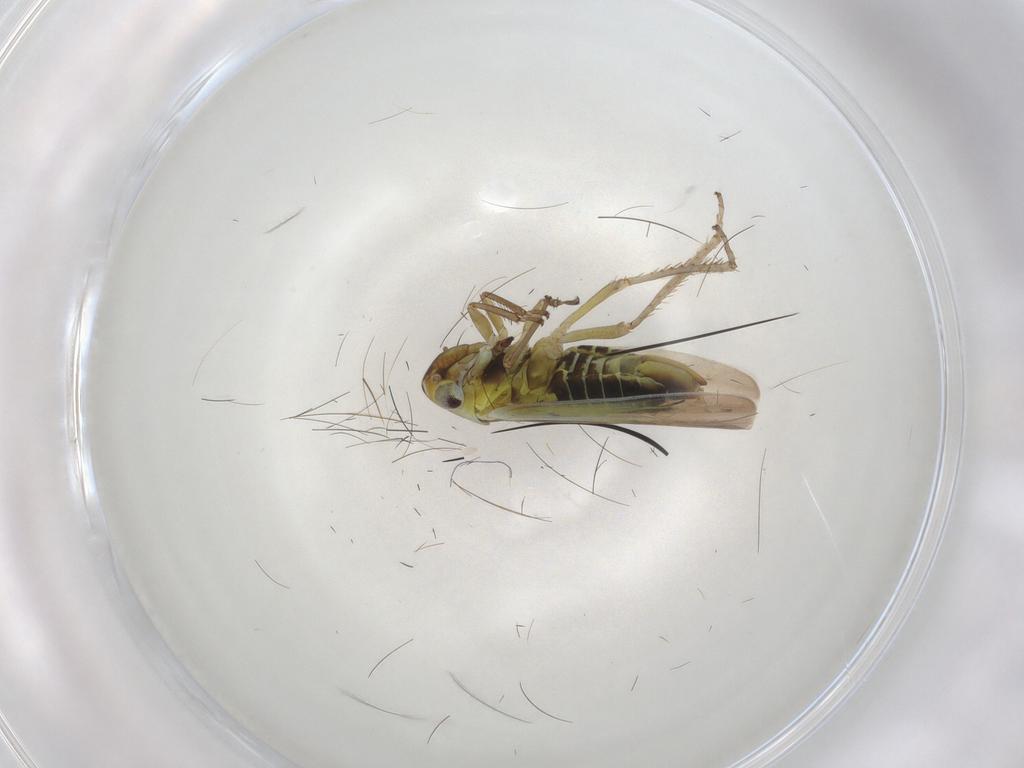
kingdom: Animalia
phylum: Arthropoda
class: Insecta
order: Hemiptera
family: Cicadellidae
